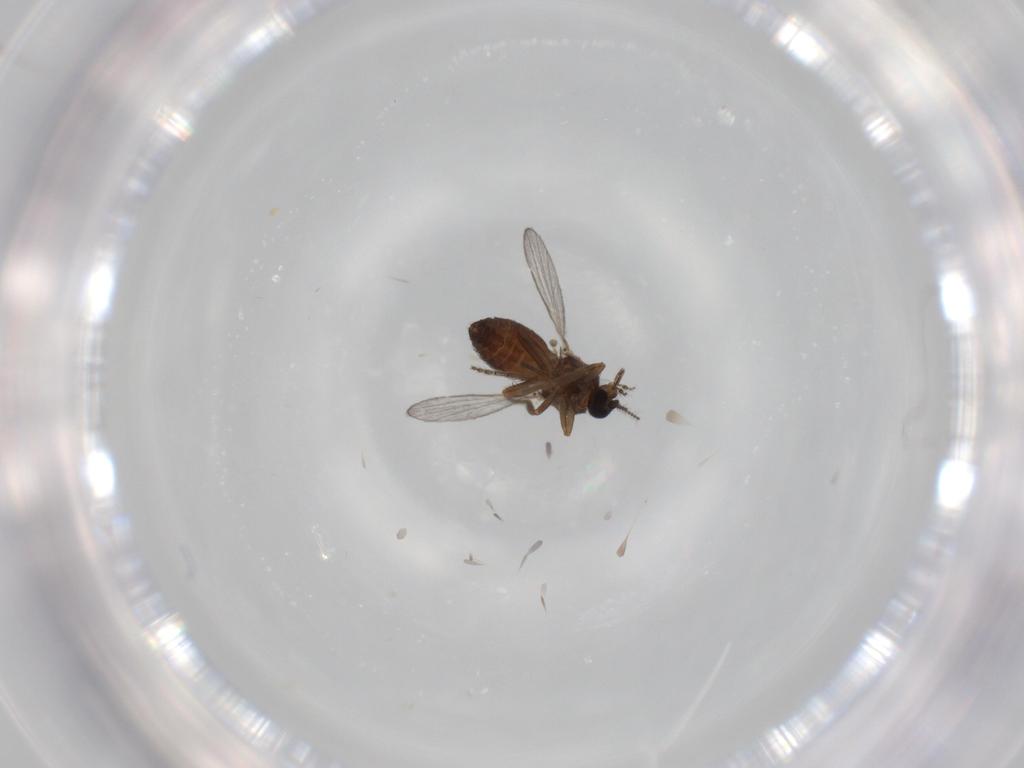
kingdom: Animalia
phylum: Arthropoda
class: Insecta
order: Diptera
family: Ceratopogonidae
